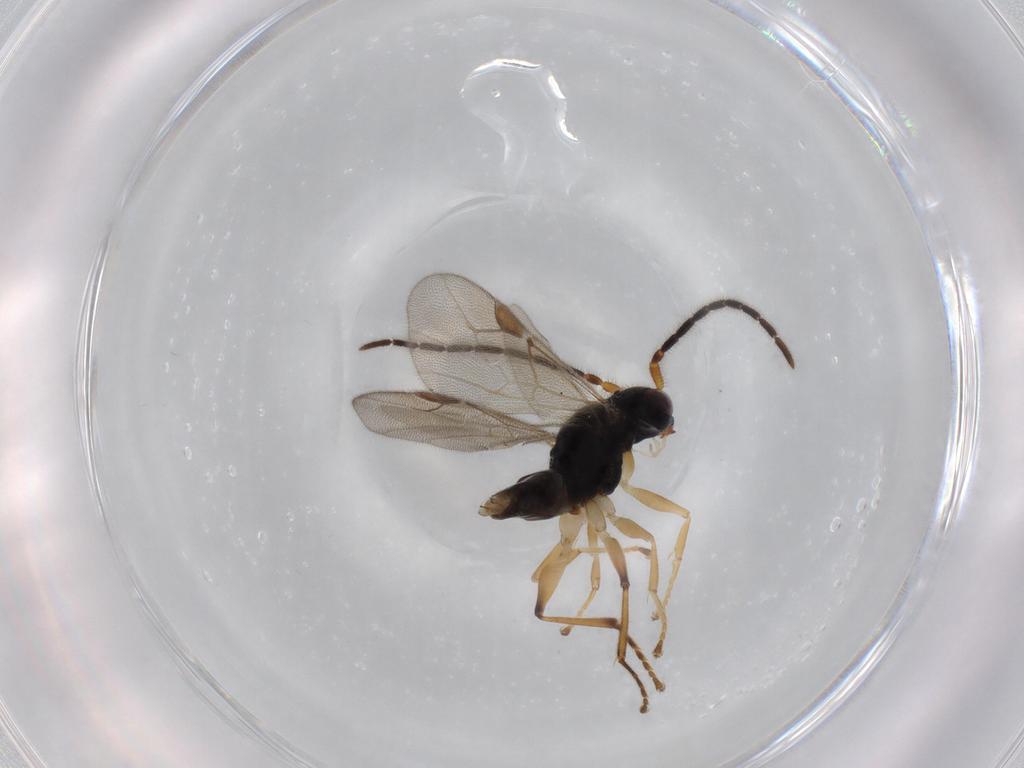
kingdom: Animalia
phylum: Arthropoda
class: Insecta
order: Hymenoptera
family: Dryinidae
